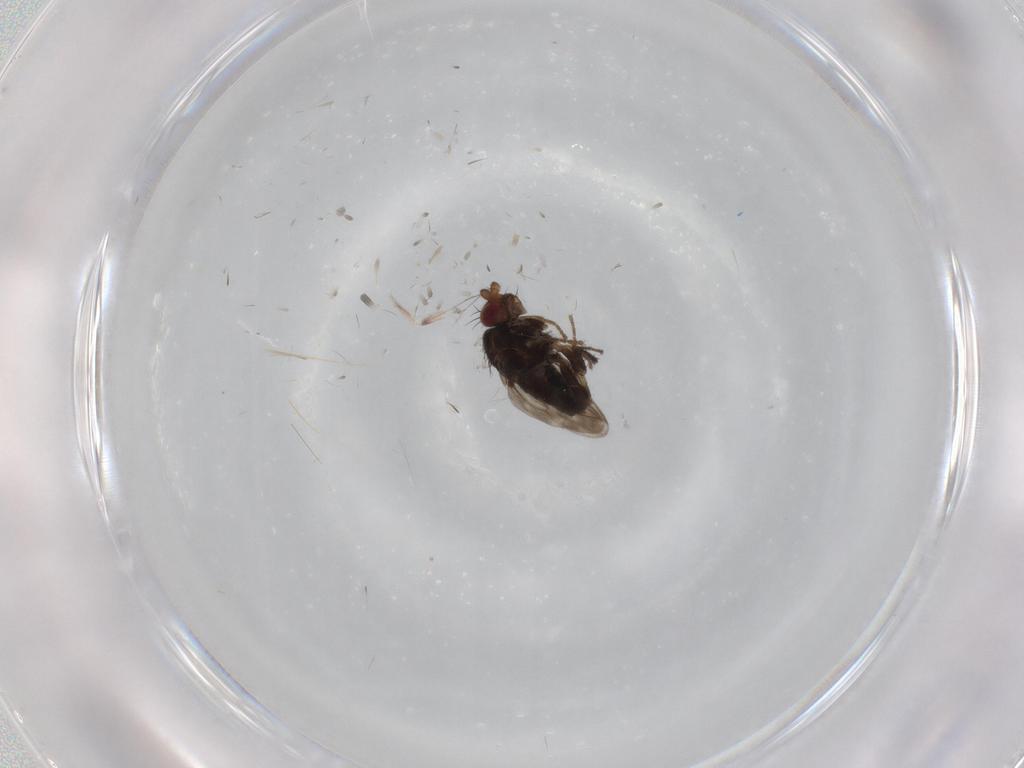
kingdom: Animalia
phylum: Arthropoda
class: Insecta
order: Diptera
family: Sphaeroceridae
